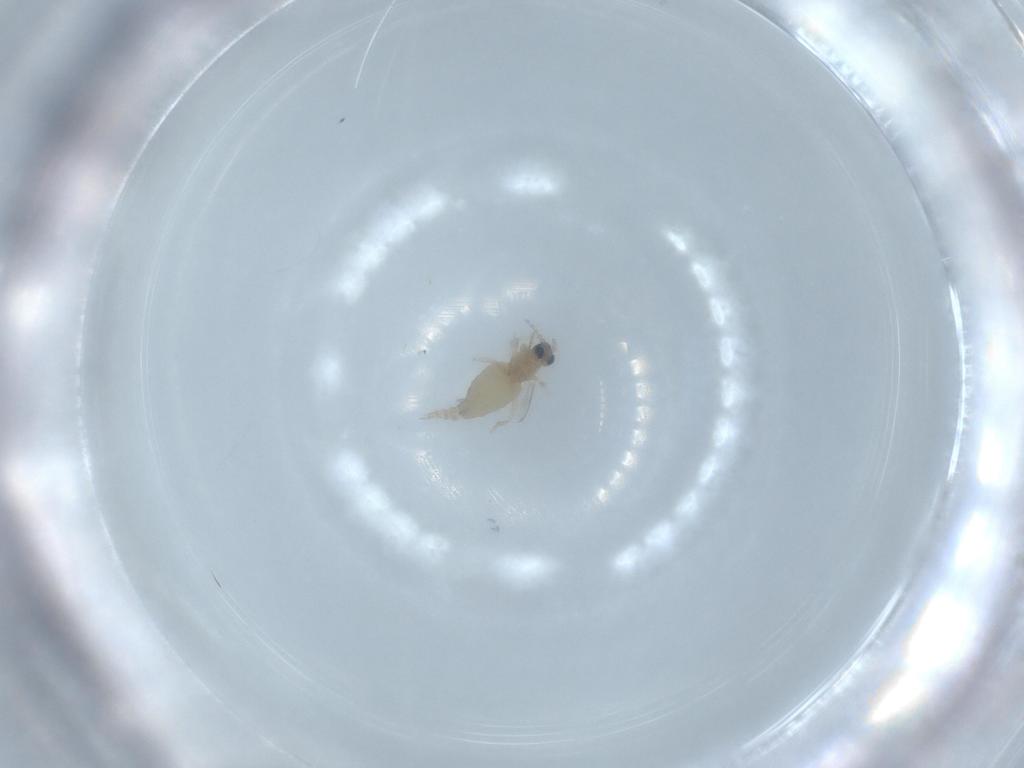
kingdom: Animalia
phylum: Arthropoda
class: Insecta
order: Diptera
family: Cecidomyiidae
